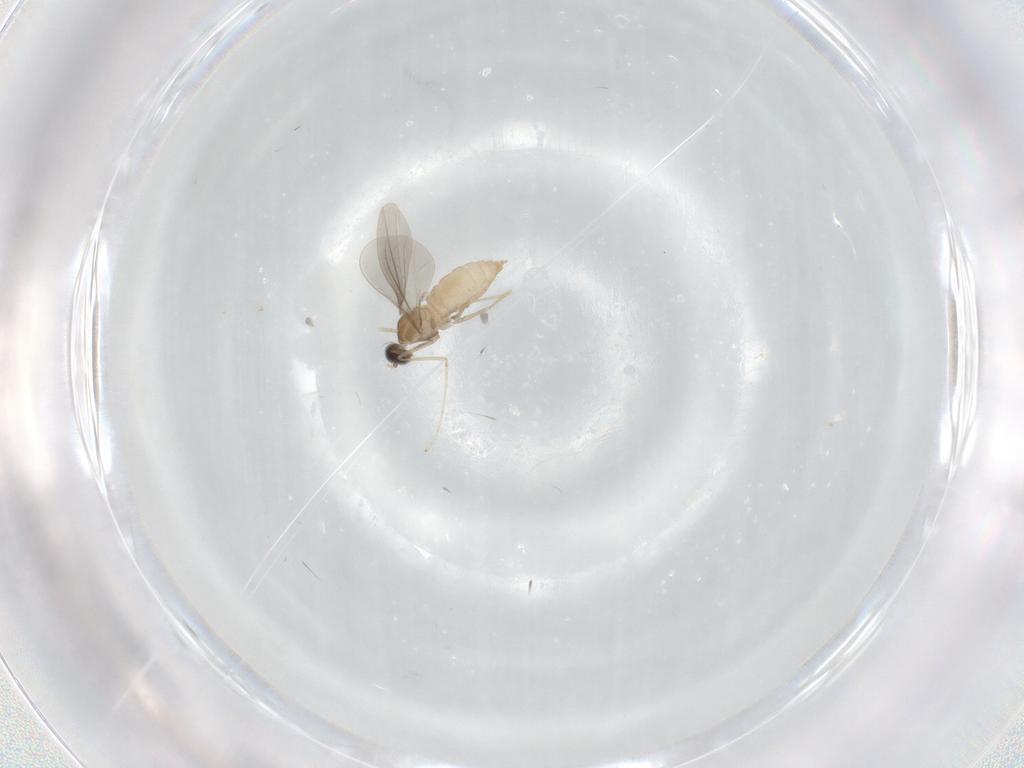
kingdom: Animalia
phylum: Arthropoda
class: Insecta
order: Diptera
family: Cecidomyiidae
